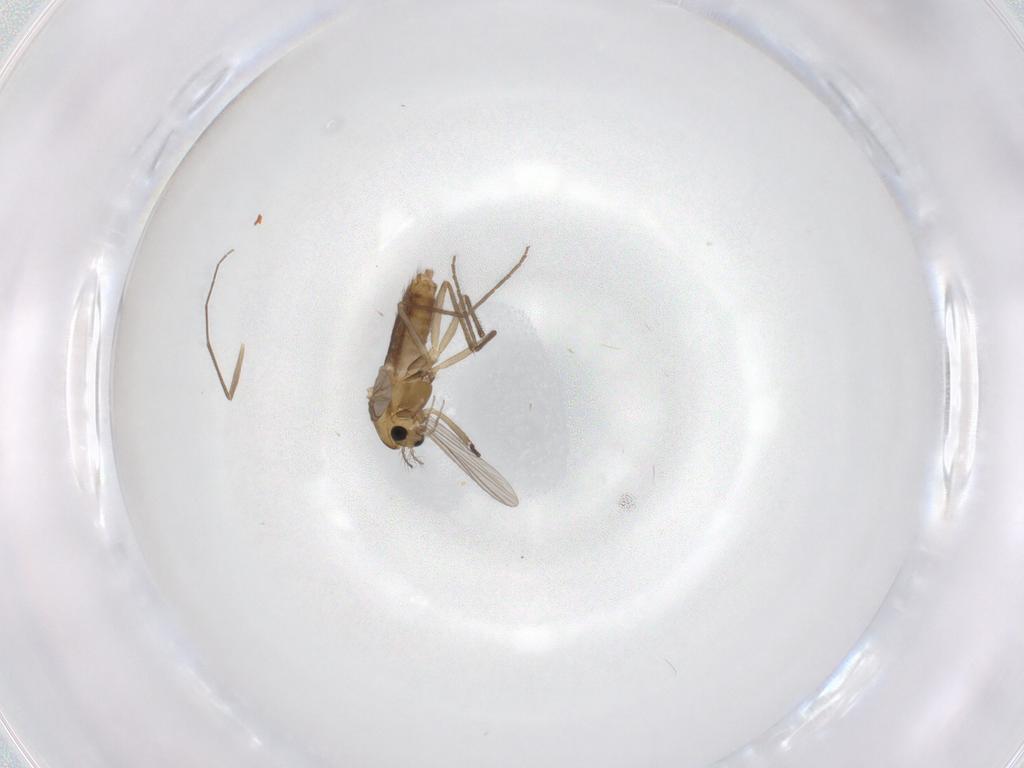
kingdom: Animalia
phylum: Arthropoda
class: Insecta
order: Diptera
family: Chironomidae
